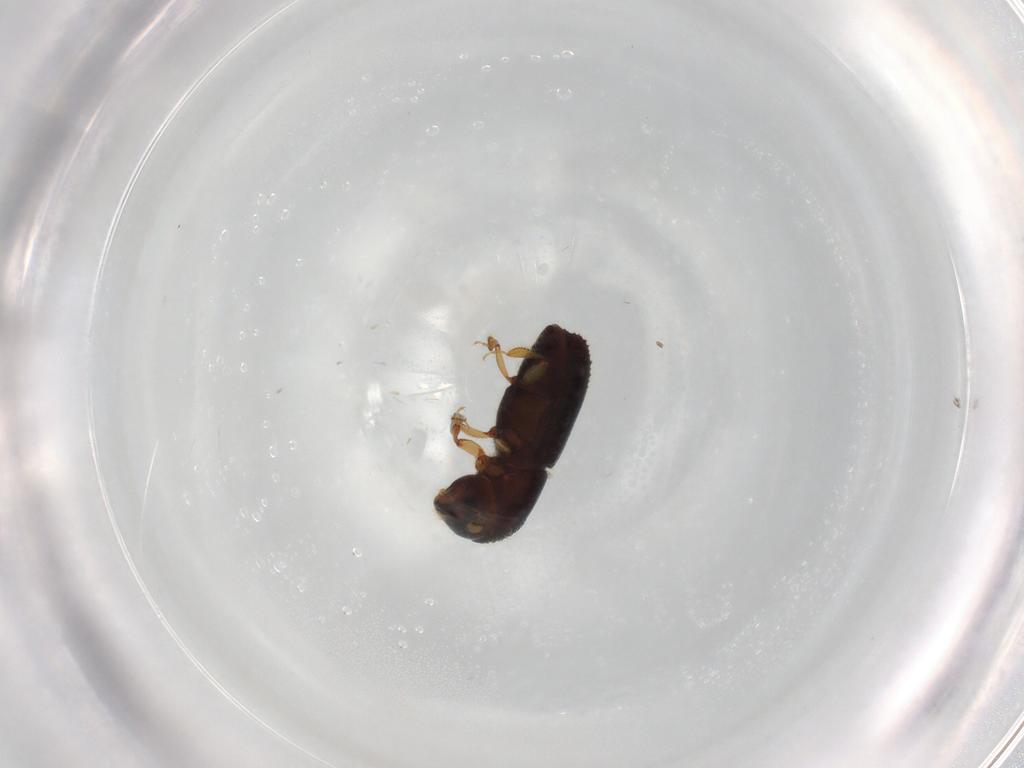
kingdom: Animalia
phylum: Arthropoda
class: Insecta
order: Coleoptera
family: Curculionidae
